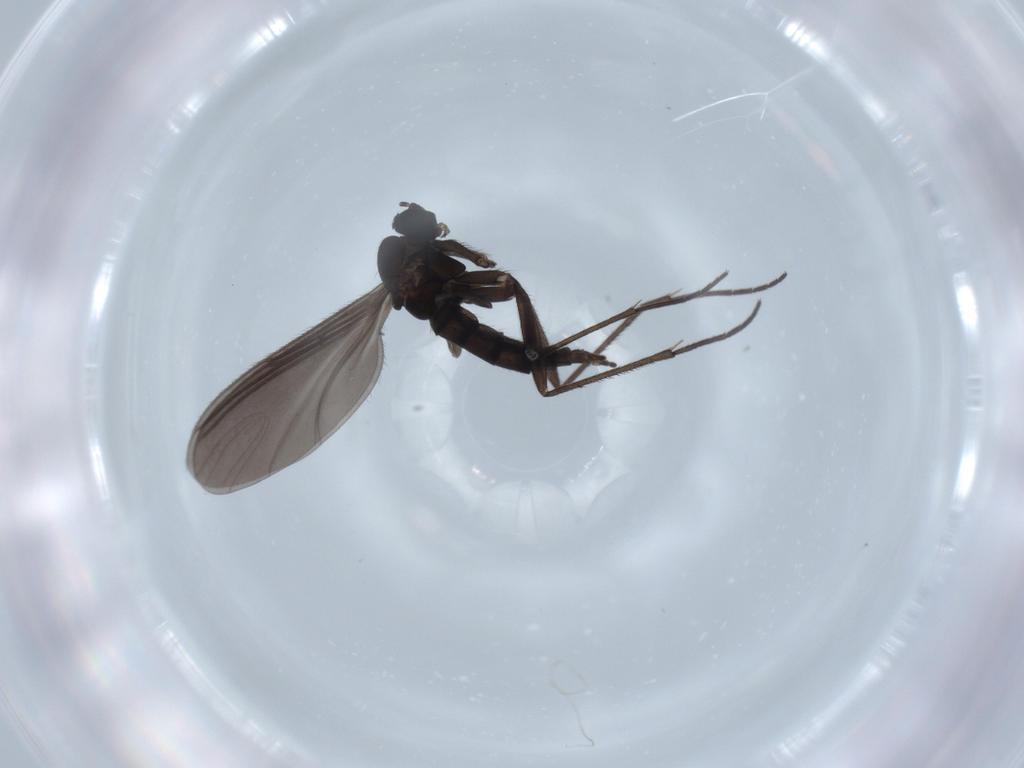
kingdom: Animalia
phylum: Arthropoda
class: Insecta
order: Diptera
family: Sciaridae
